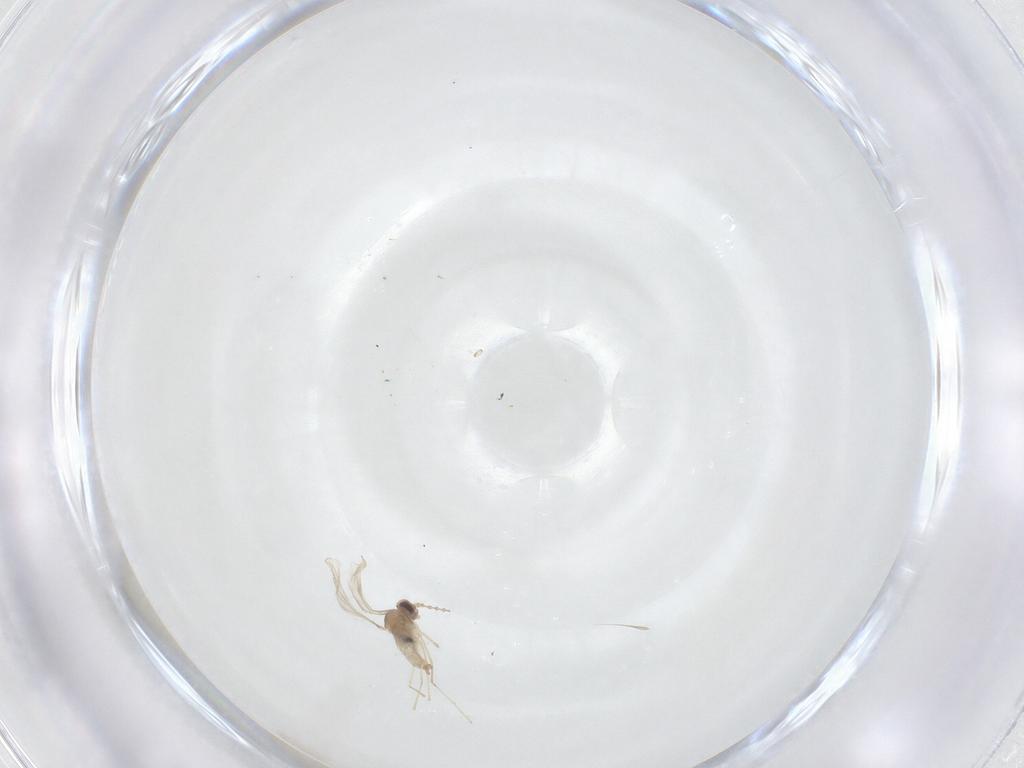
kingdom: Animalia
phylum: Arthropoda
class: Insecta
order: Diptera
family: Cecidomyiidae
